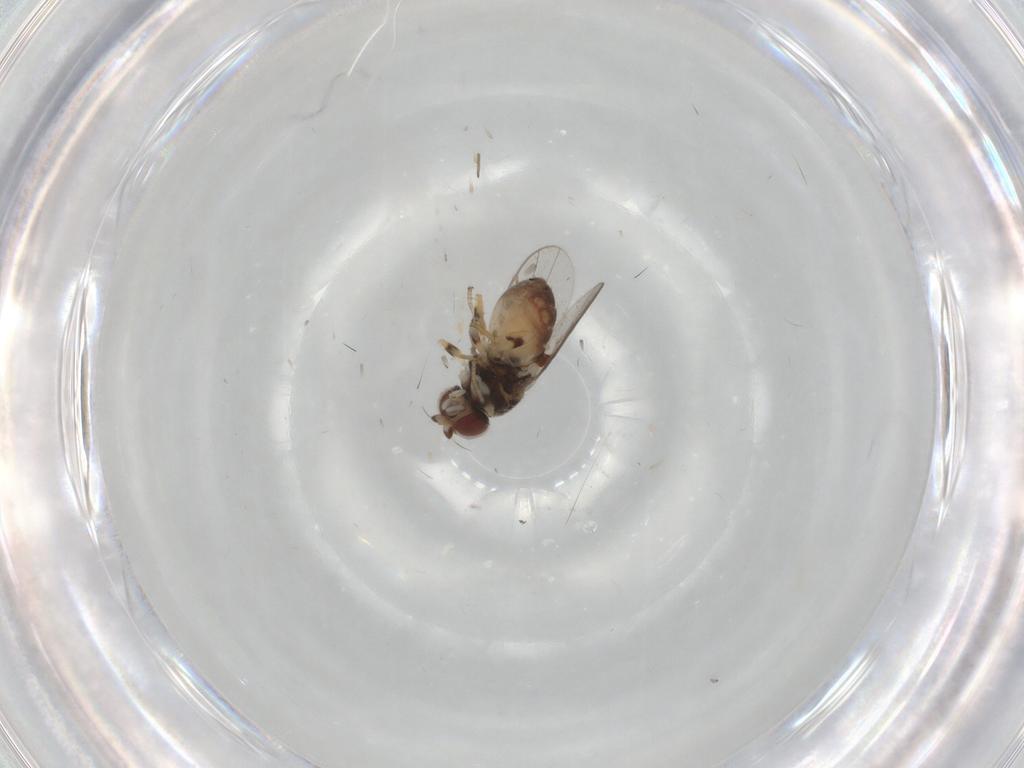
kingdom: Animalia
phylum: Arthropoda
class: Insecta
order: Diptera
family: Chloropidae
